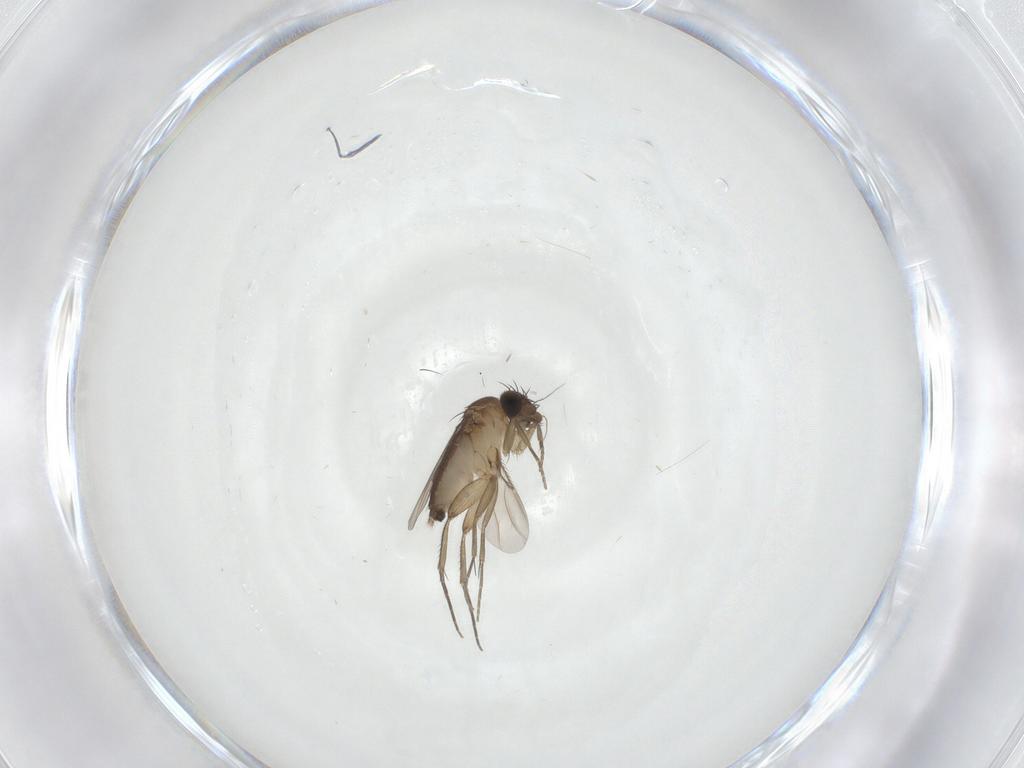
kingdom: Animalia
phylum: Arthropoda
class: Insecta
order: Diptera
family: Phoridae
